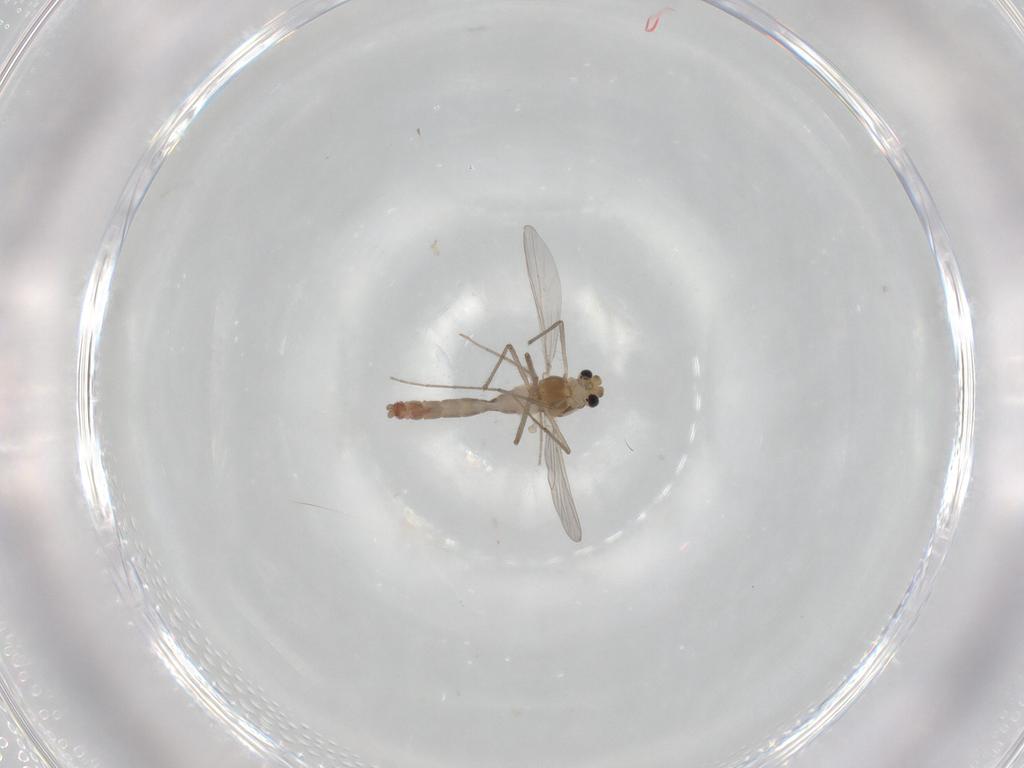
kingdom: Animalia
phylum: Arthropoda
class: Insecta
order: Diptera
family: Chironomidae
